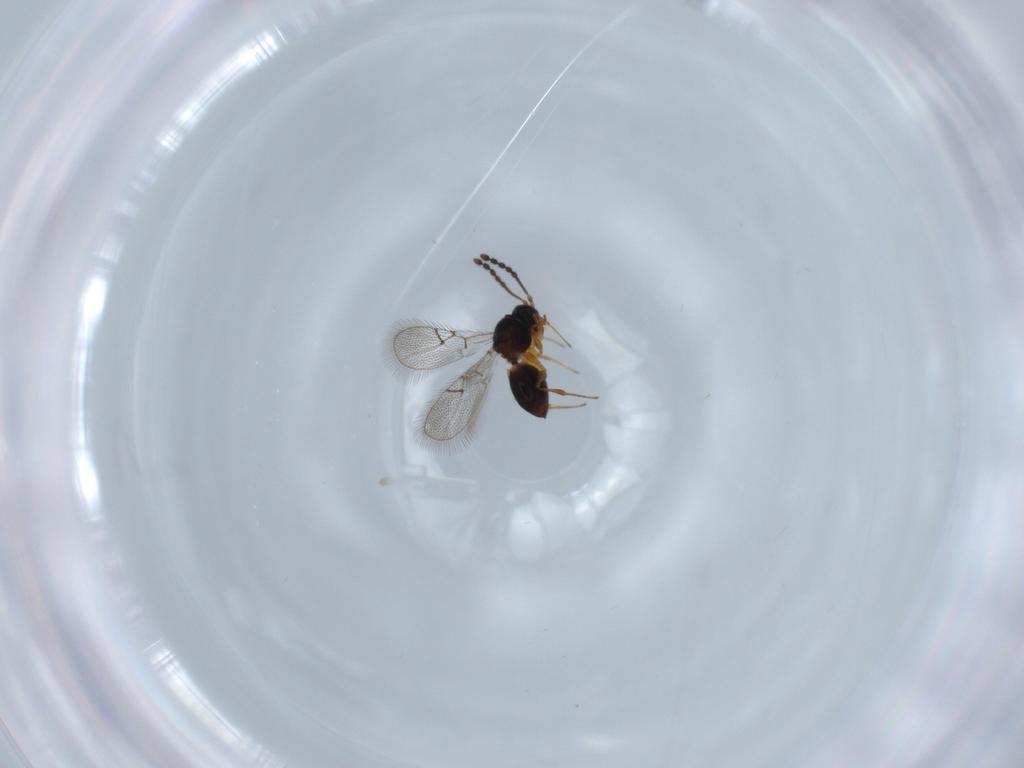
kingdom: Animalia
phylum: Arthropoda
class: Insecta
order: Hymenoptera
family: Figitidae
